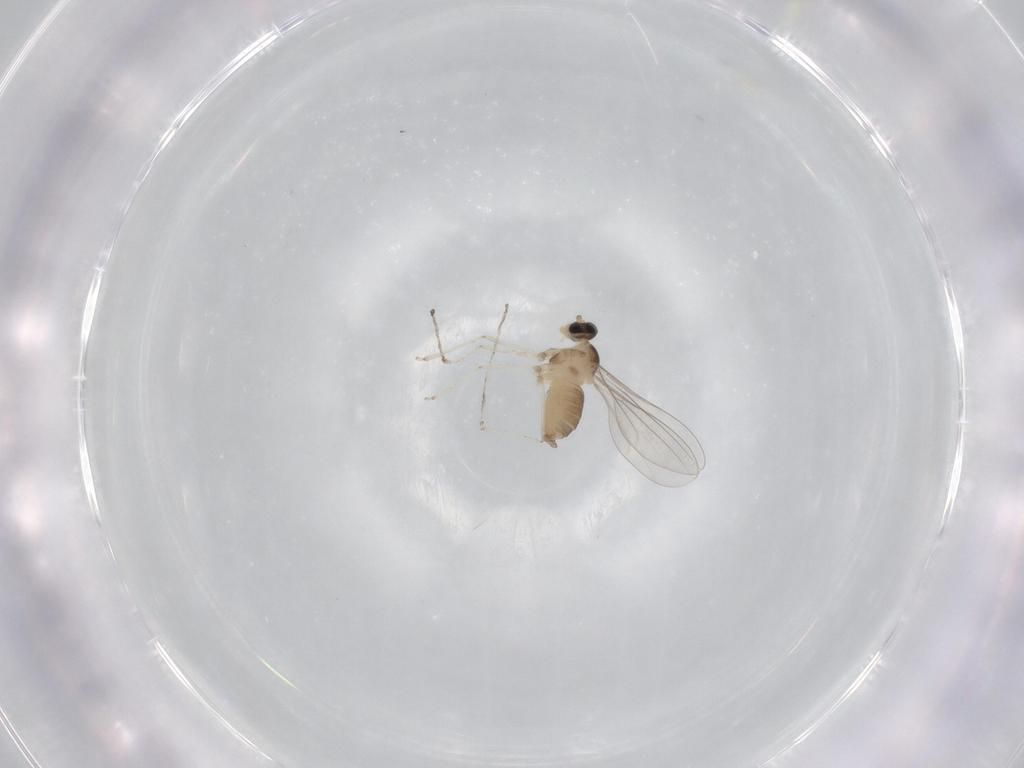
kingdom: Animalia
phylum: Arthropoda
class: Insecta
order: Diptera
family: Cecidomyiidae
